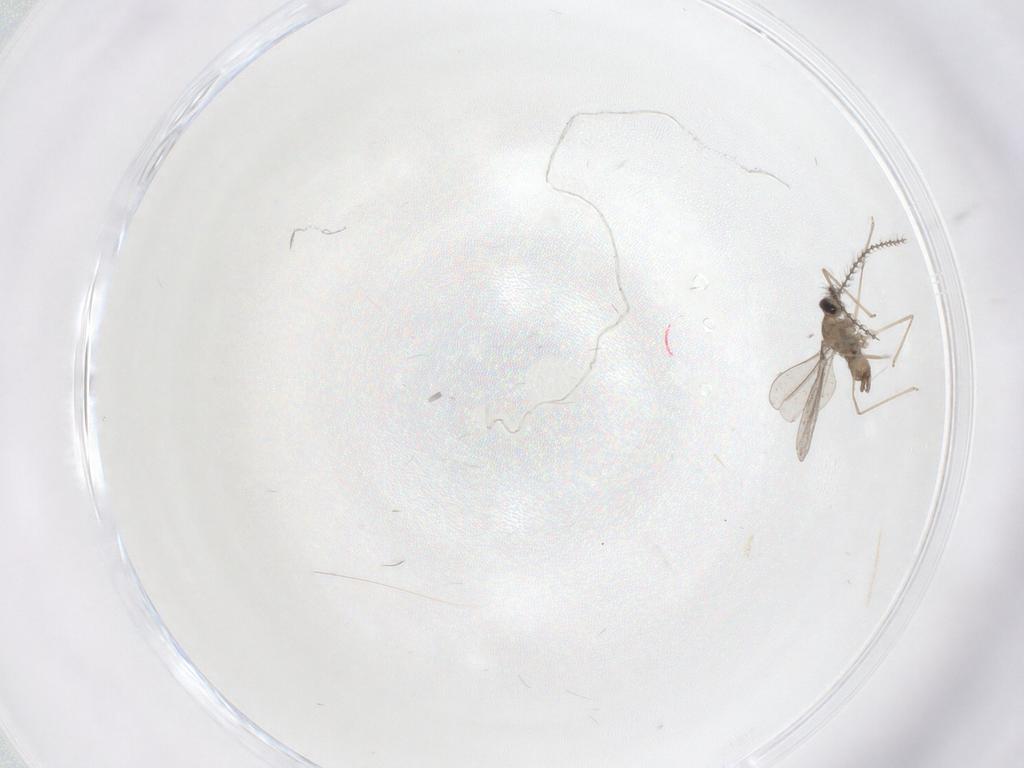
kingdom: Animalia
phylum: Arthropoda
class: Insecta
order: Diptera
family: Cecidomyiidae
